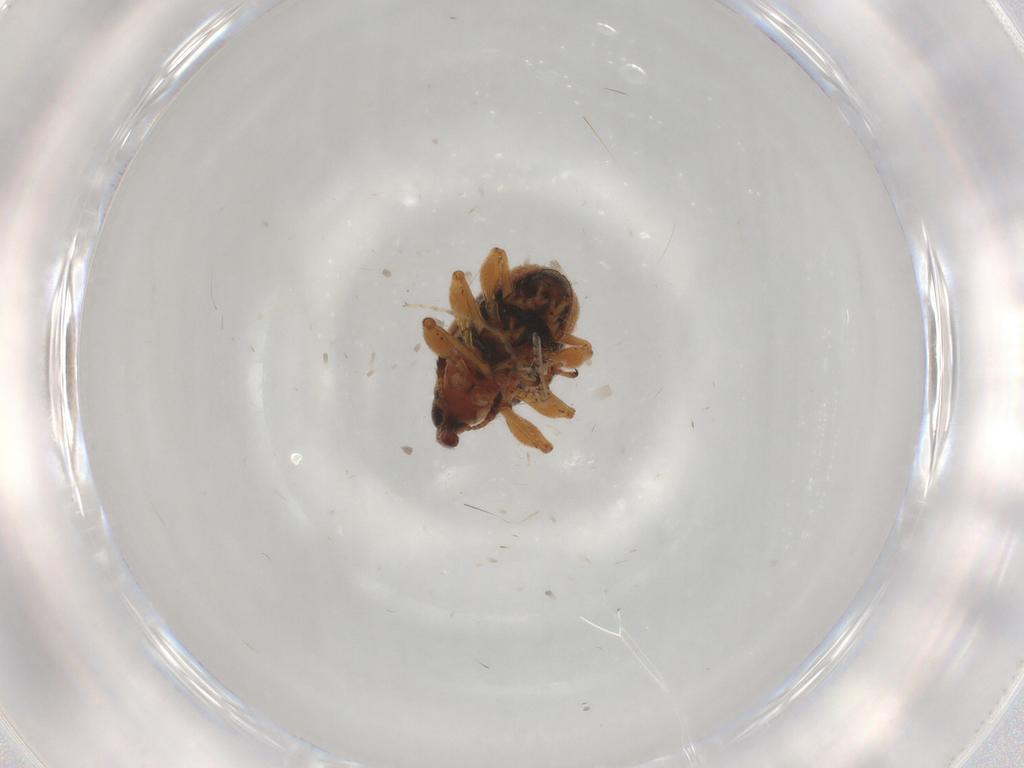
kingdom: Animalia
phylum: Arthropoda
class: Insecta
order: Coleoptera
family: Brentidae
